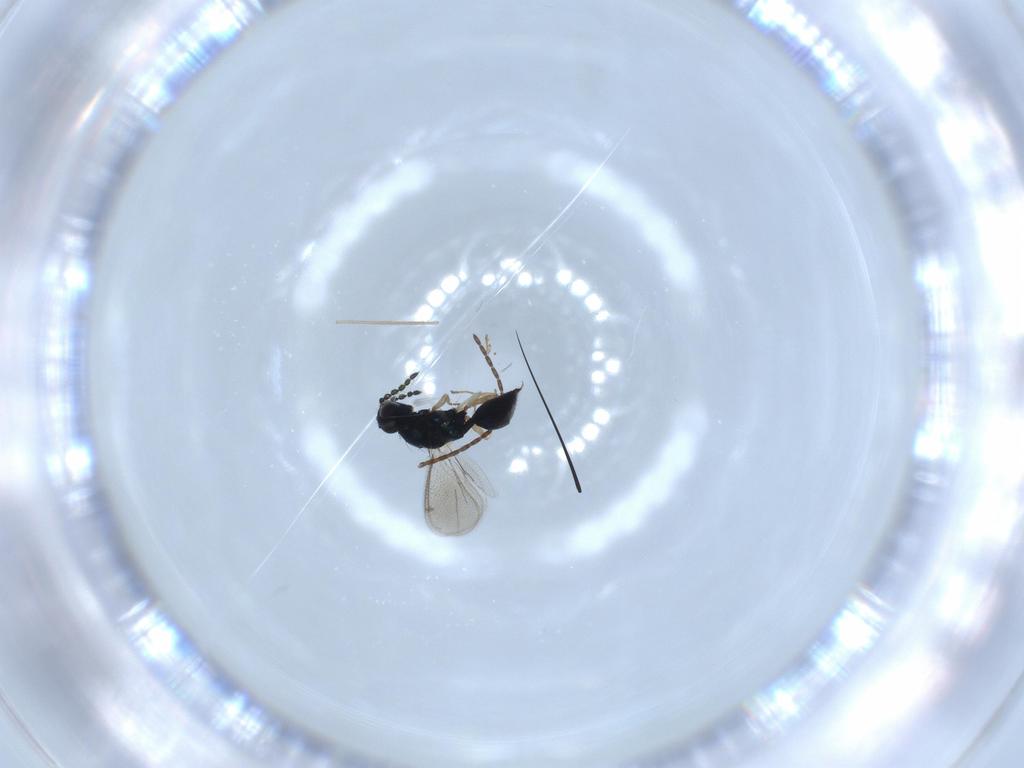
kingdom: Animalia
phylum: Arthropoda
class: Insecta
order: Hymenoptera
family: Eulophidae
